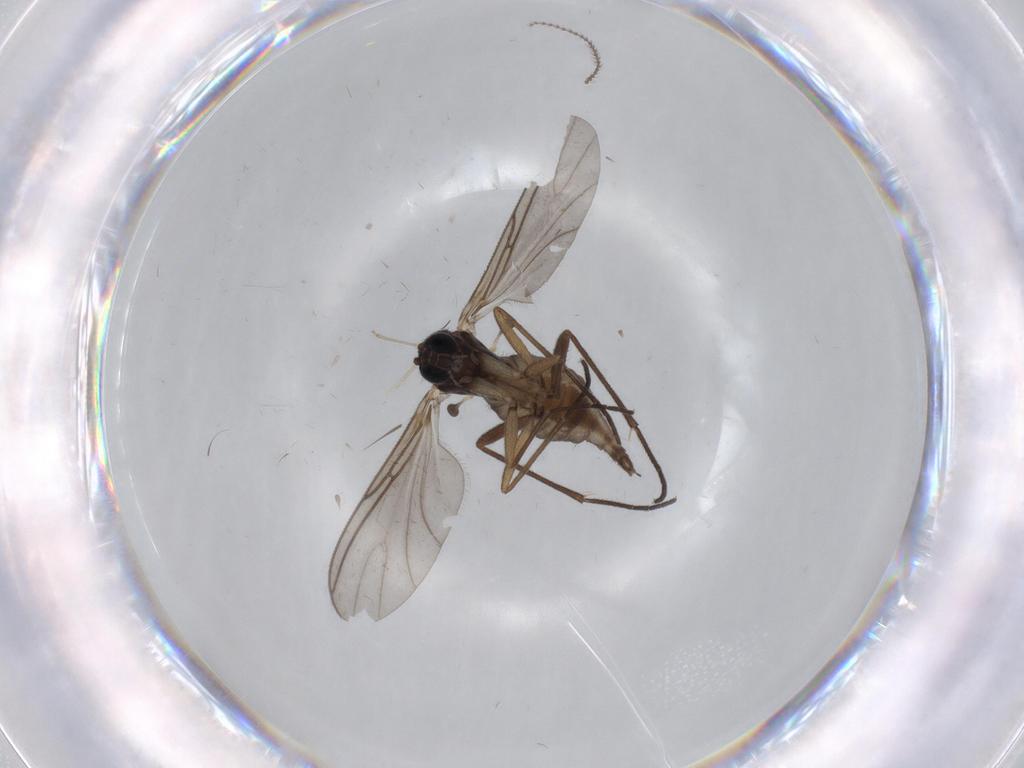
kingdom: Animalia
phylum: Arthropoda
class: Insecta
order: Diptera
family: Sciaridae
